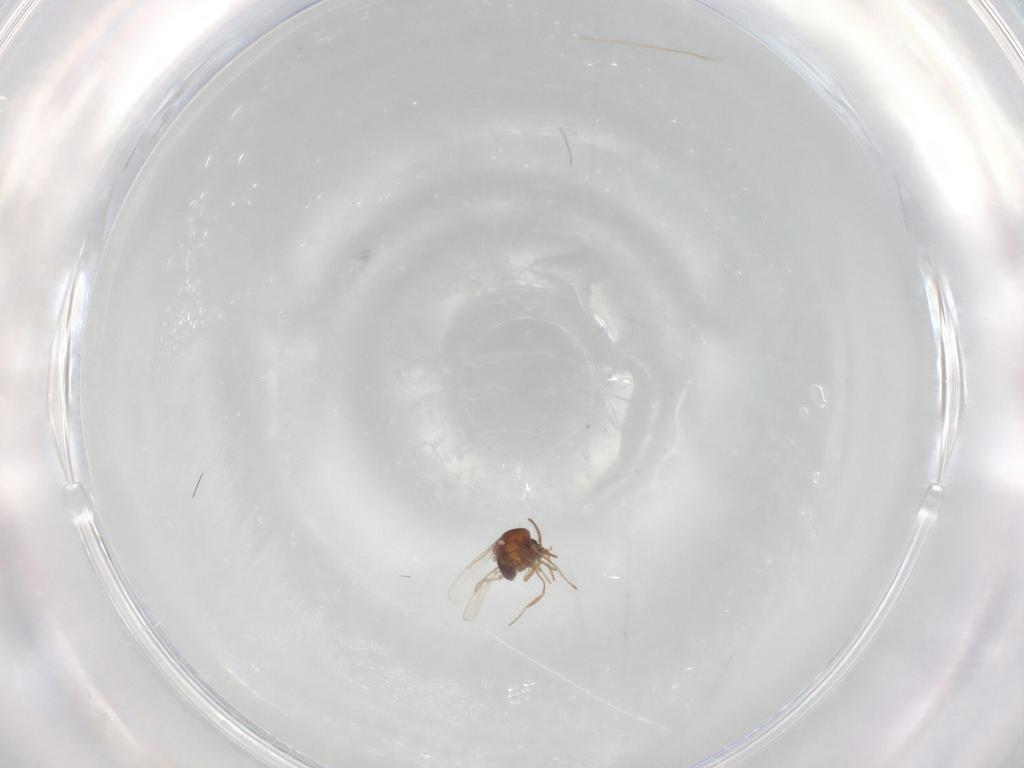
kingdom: Animalia
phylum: Arthropoda
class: Insecta
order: Diptera
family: Ceratopogonidae
